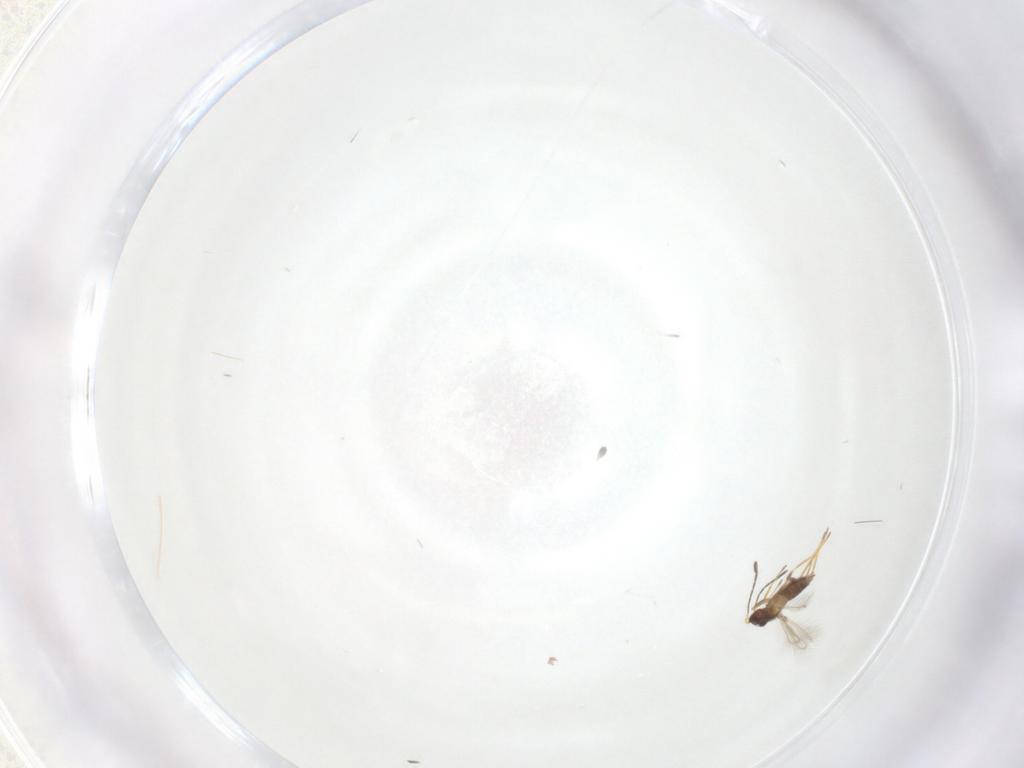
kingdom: Animalia
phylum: Arthropoda
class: Insecta
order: Hymenoptera
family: Mymaridae
